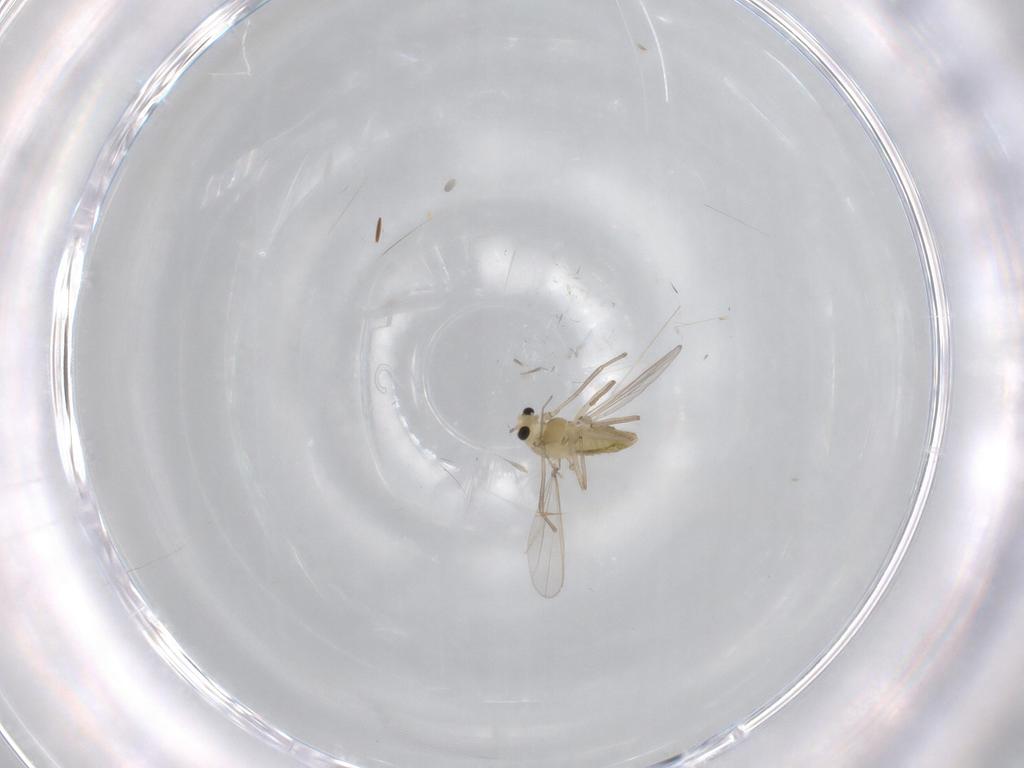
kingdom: Animalia
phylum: Arthropoda
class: Insecta
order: Diptera
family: Chironomidae
